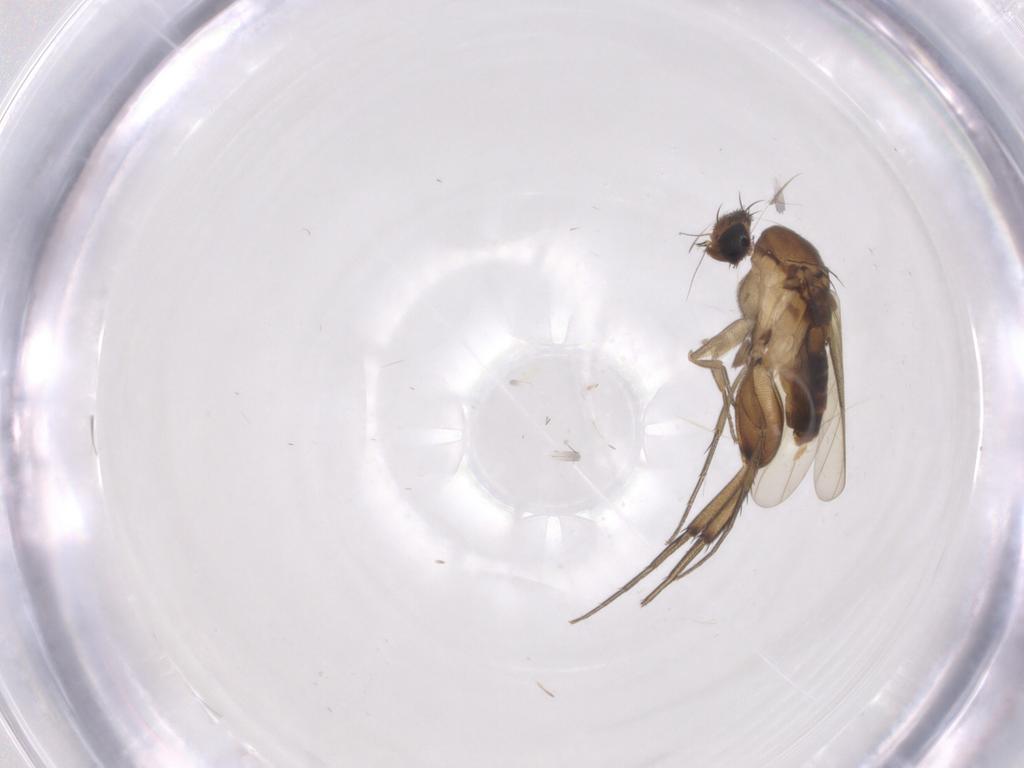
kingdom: Animalia
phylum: Arthropoda
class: Insecta
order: Diptera
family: Phoridae
